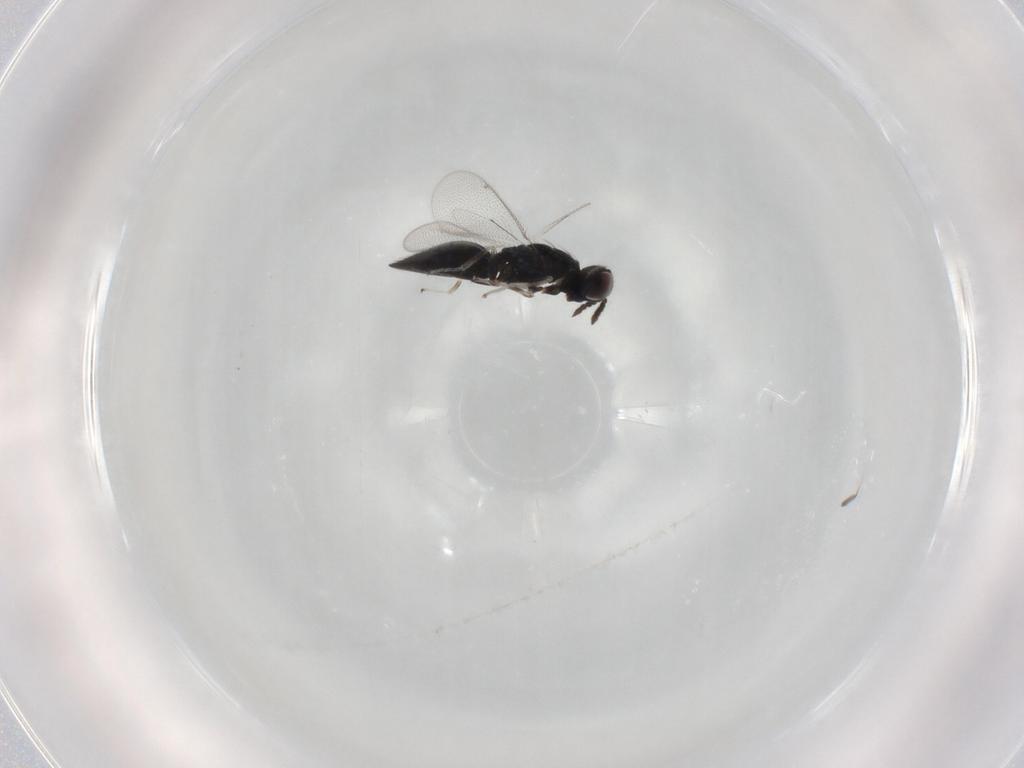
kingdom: Animalia
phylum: Arthropoda
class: Insecta
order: Hymenoptera
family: Eulophidae
